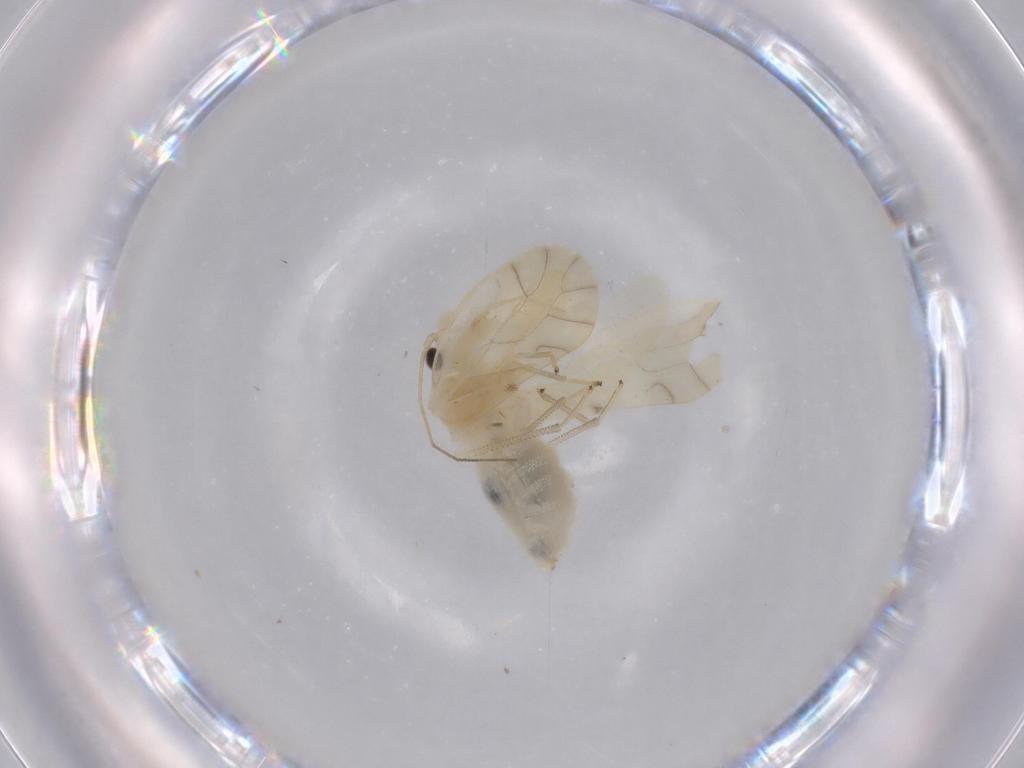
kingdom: Animalia
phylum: Arthropoda
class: Insecta
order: Psocodea
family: Caeciliusidae
